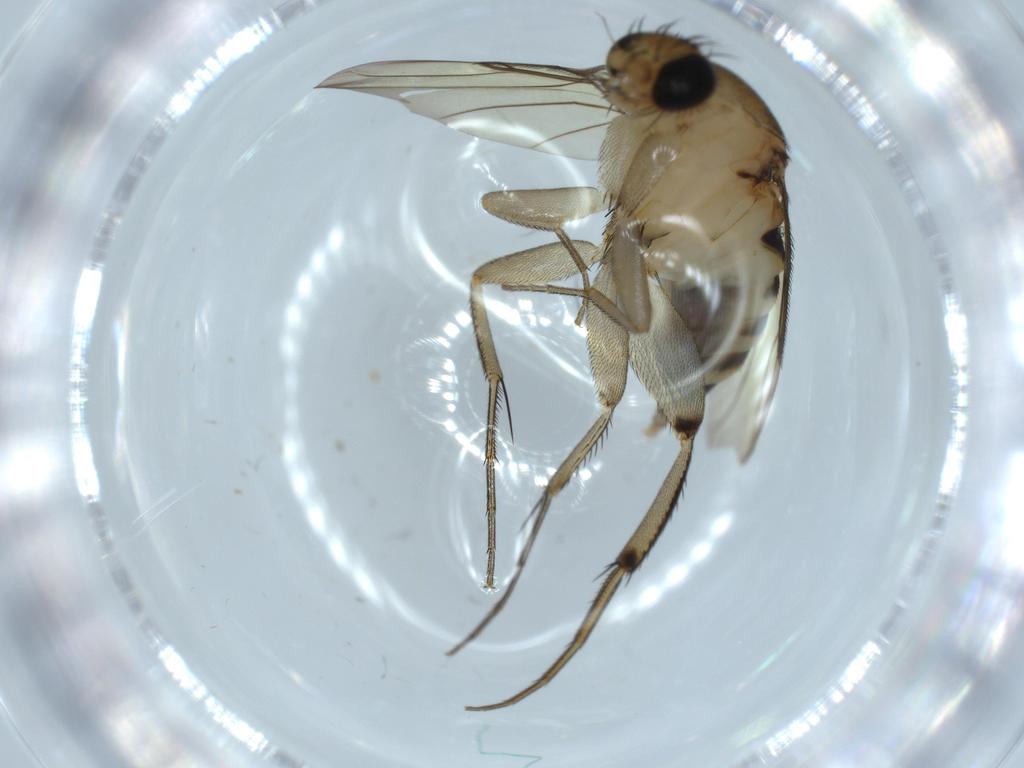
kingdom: Animalia
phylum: Arthropoda
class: Insecta
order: Diptera
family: Phoridae
